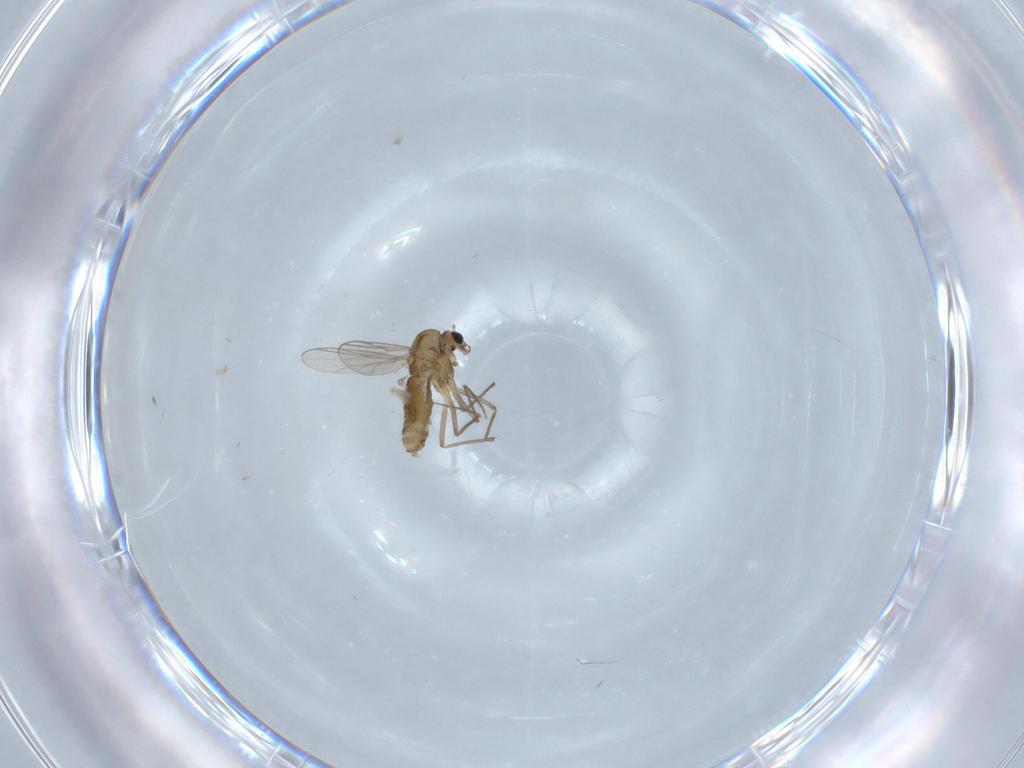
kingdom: Animalia
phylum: Arthropoda
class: Insecta
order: Diptera
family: Chironomidae
